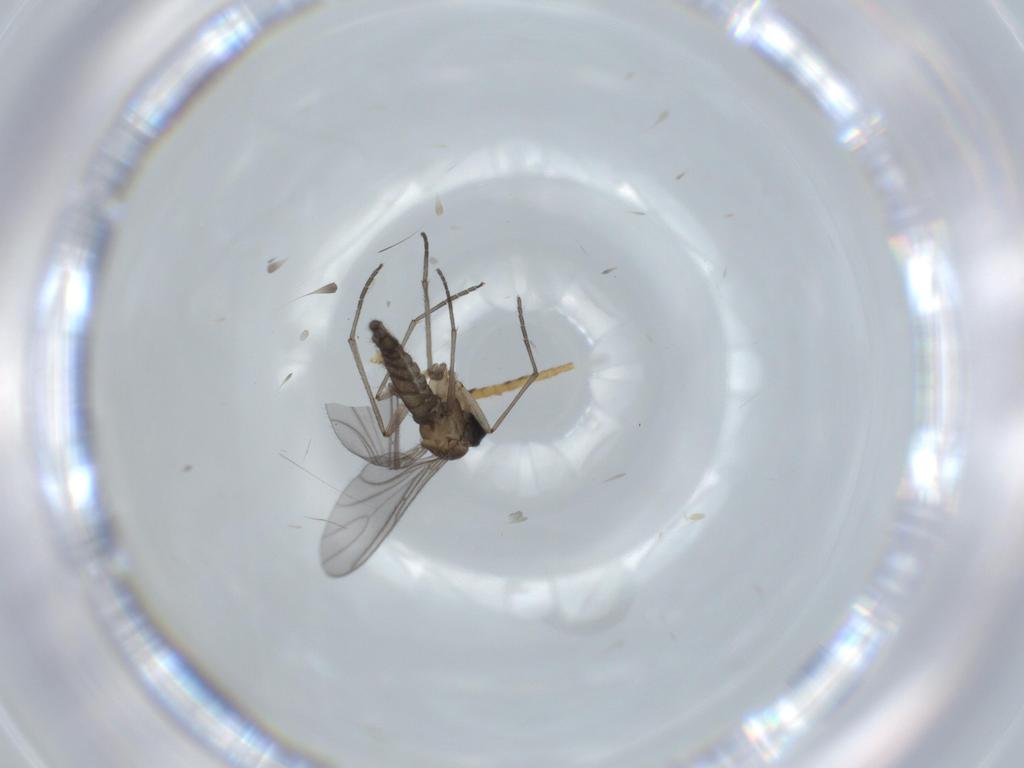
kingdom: Animalia
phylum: Arthropoda
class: Insecta
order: Diptera
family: Sciaridae
